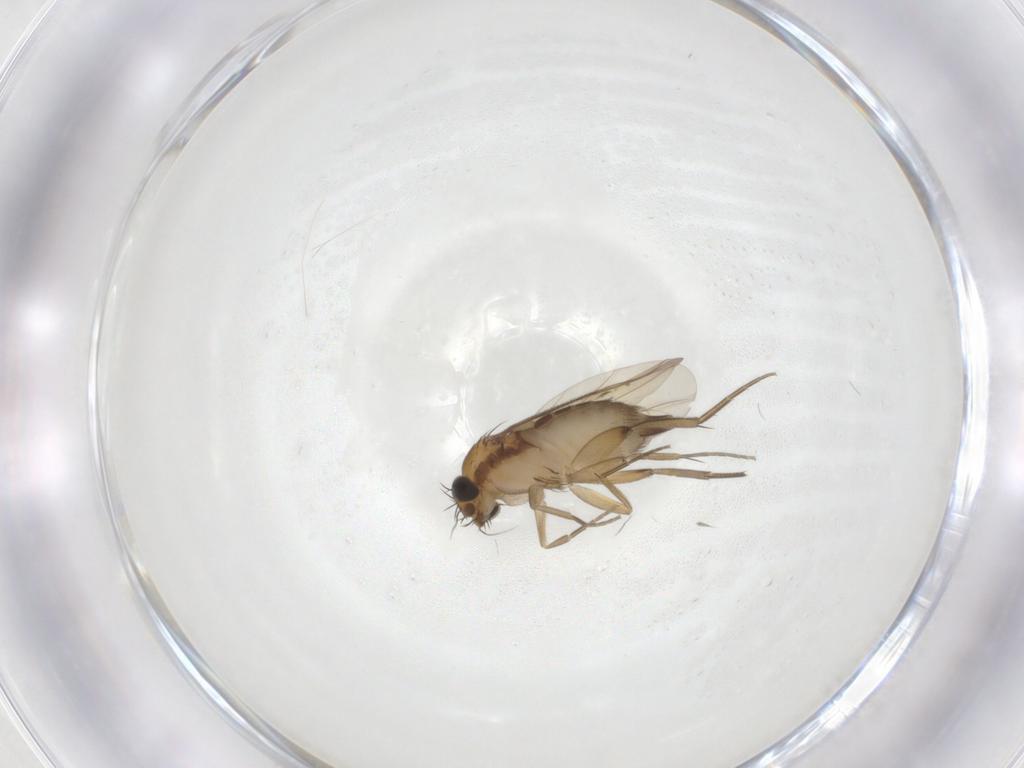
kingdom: Animalia
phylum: Arthropoda
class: Insecta
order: Diptera
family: Phoridae
